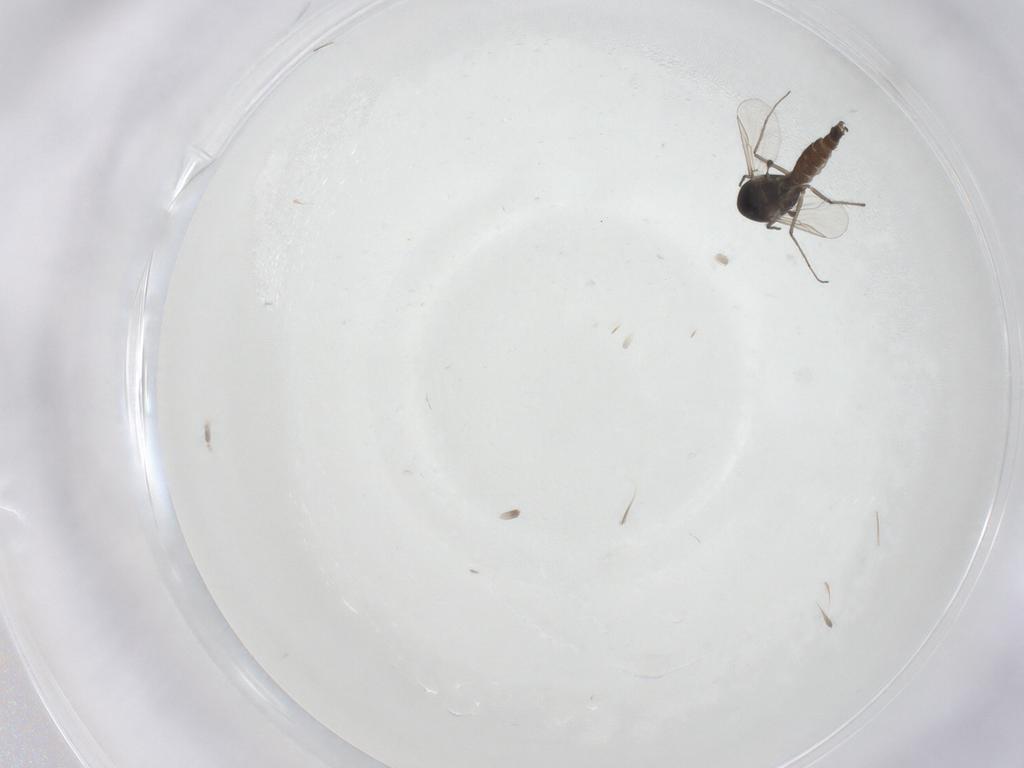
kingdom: Animalia
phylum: Arthropoda
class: Insecta
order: Diptera
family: Chironomidae
